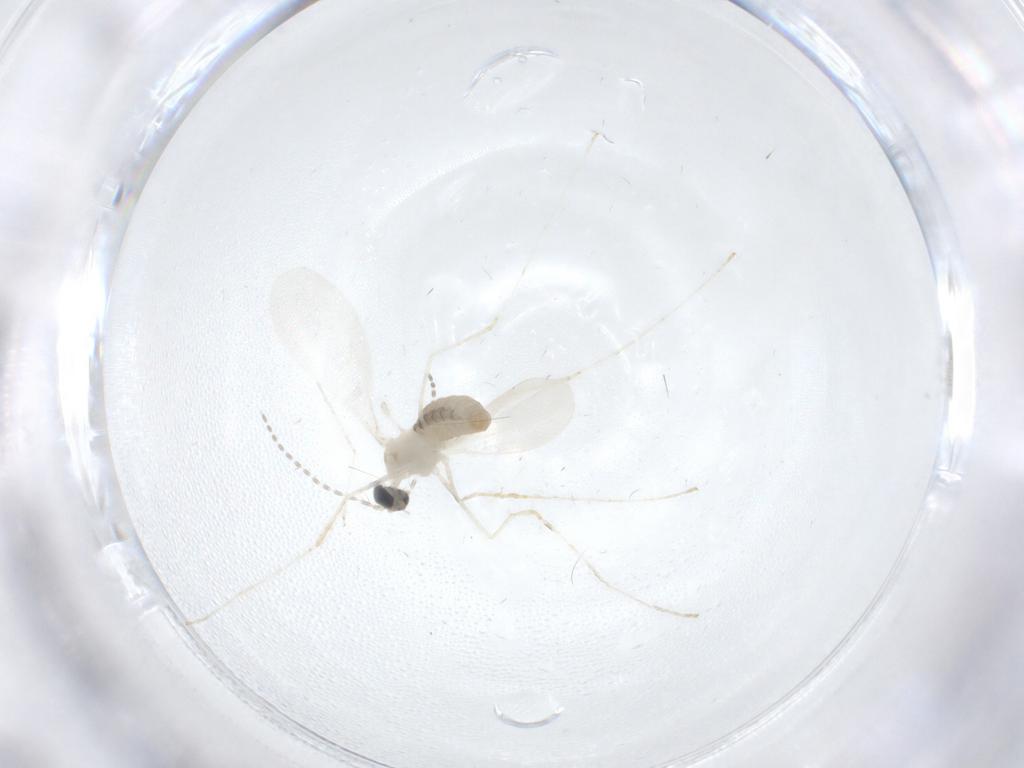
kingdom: Animalia
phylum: Arthropoda
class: Insecta
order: Diptera
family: Cecidomyiidae
